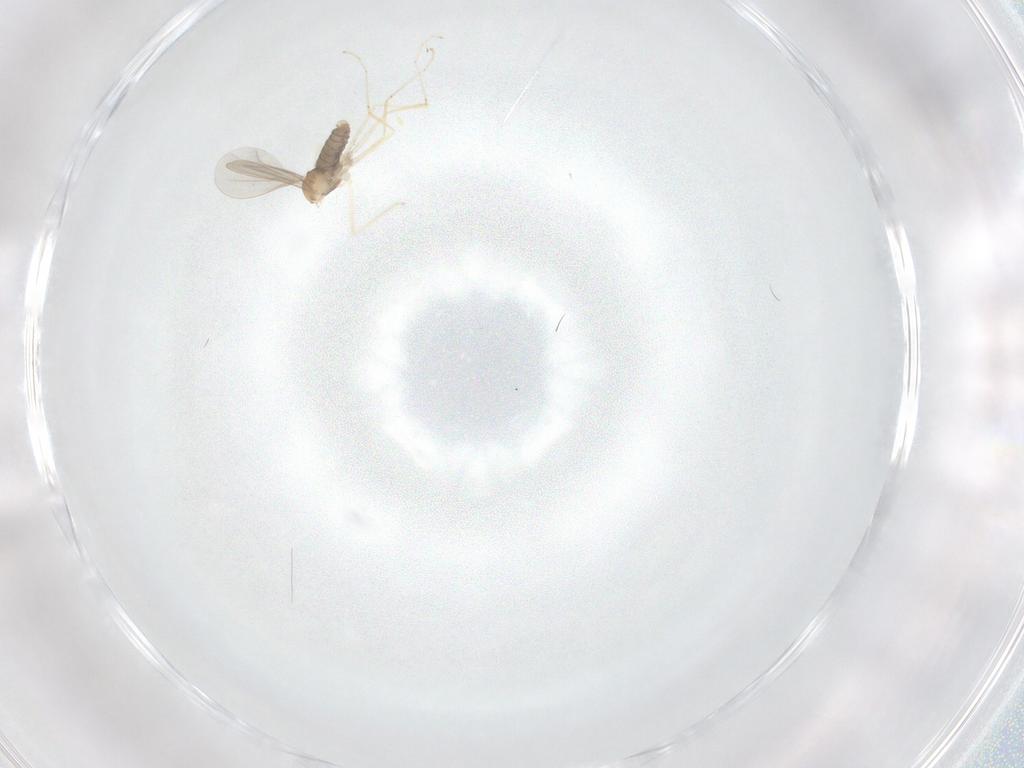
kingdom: Animalia
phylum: Arthropoda
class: Insecta
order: Diptera
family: Cecidomyiidae
